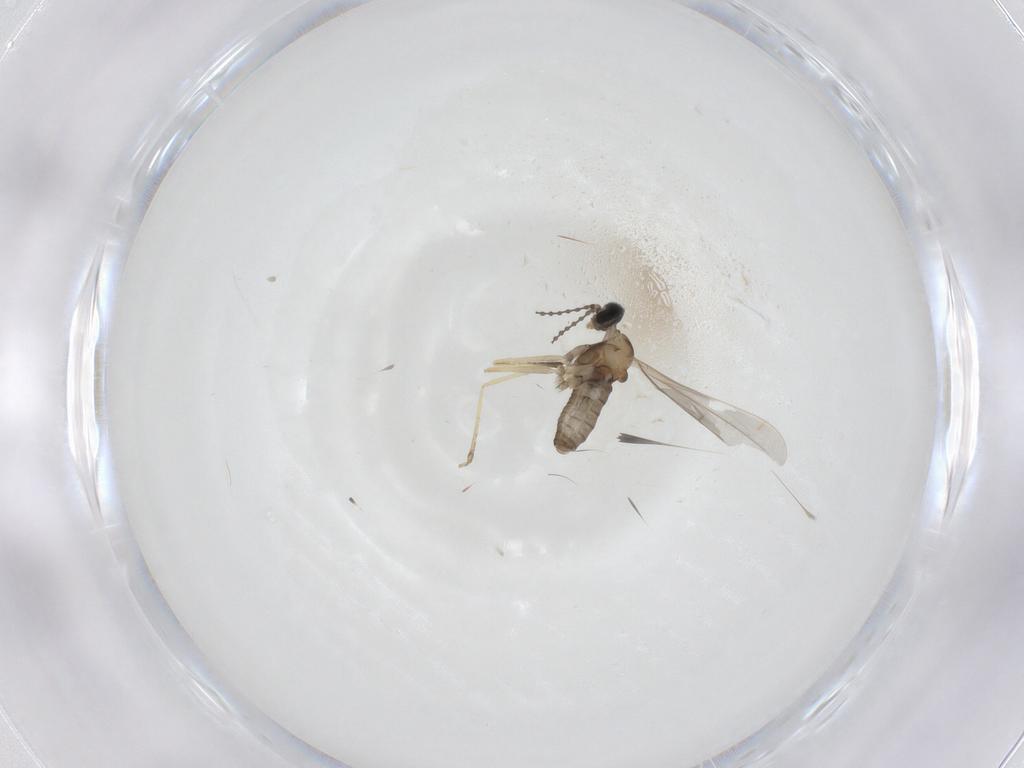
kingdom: Animalia
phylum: Arthropoda
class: Insecta
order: Diptera
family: Cecidomyiidae
